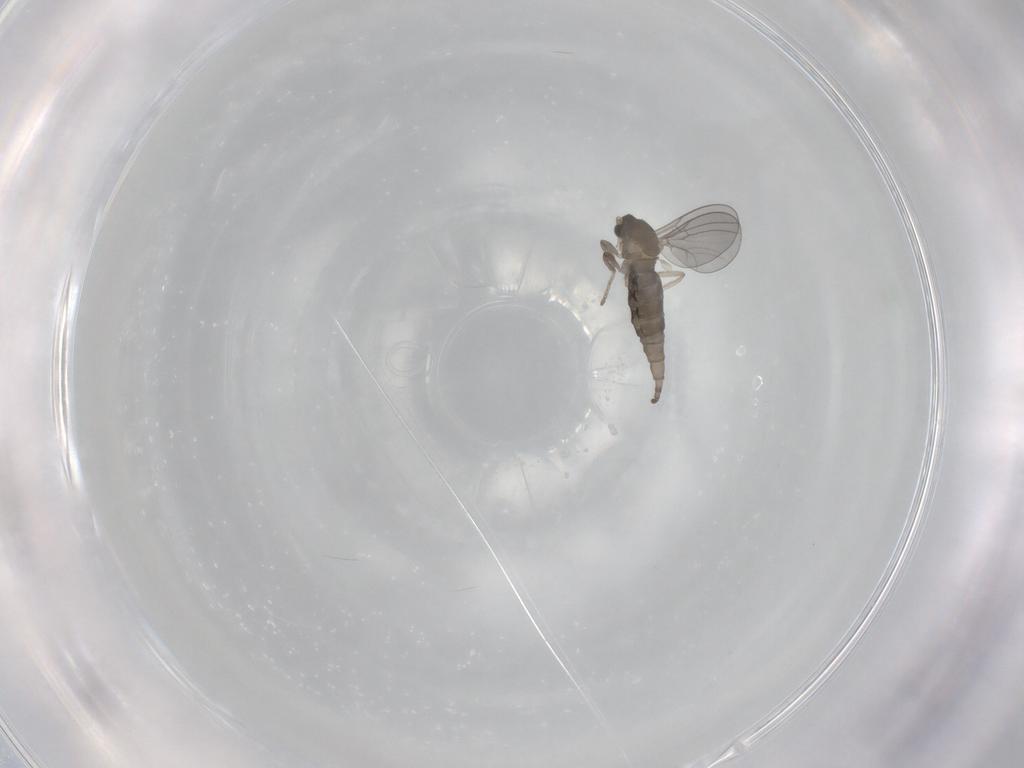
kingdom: Animalia
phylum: Arthropoda
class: Insecta
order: Diptera
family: Cecidomyiidae
